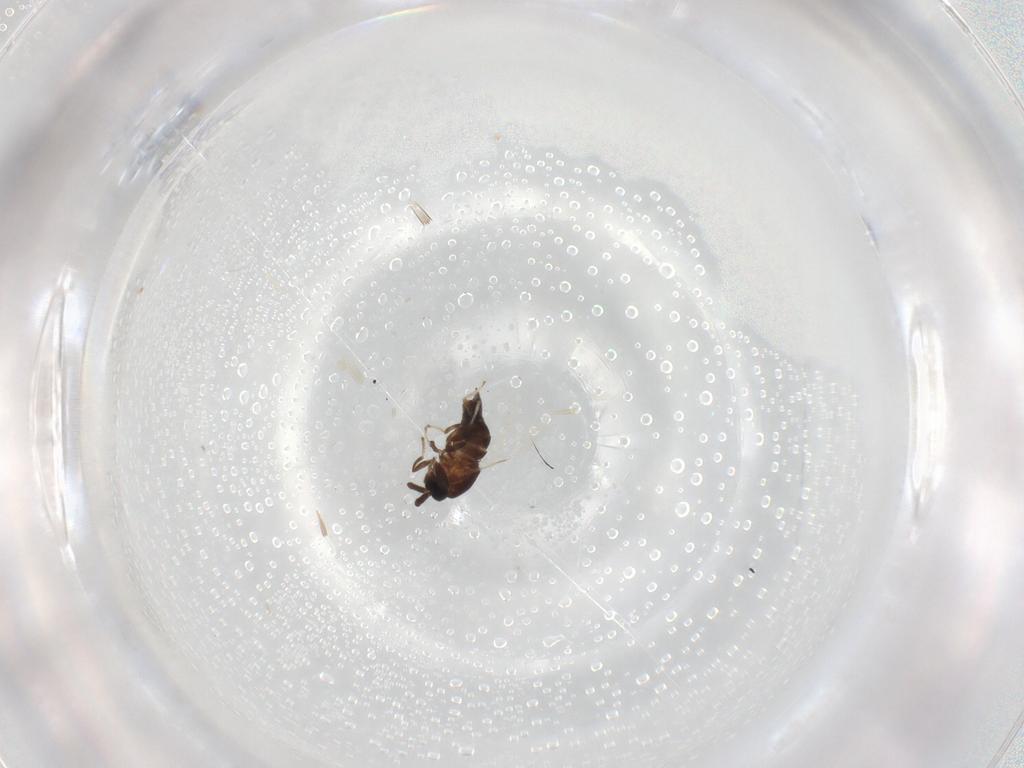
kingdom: Animalia
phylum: Arthropoda
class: Insecta
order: Diptera
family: Scatopsidae
